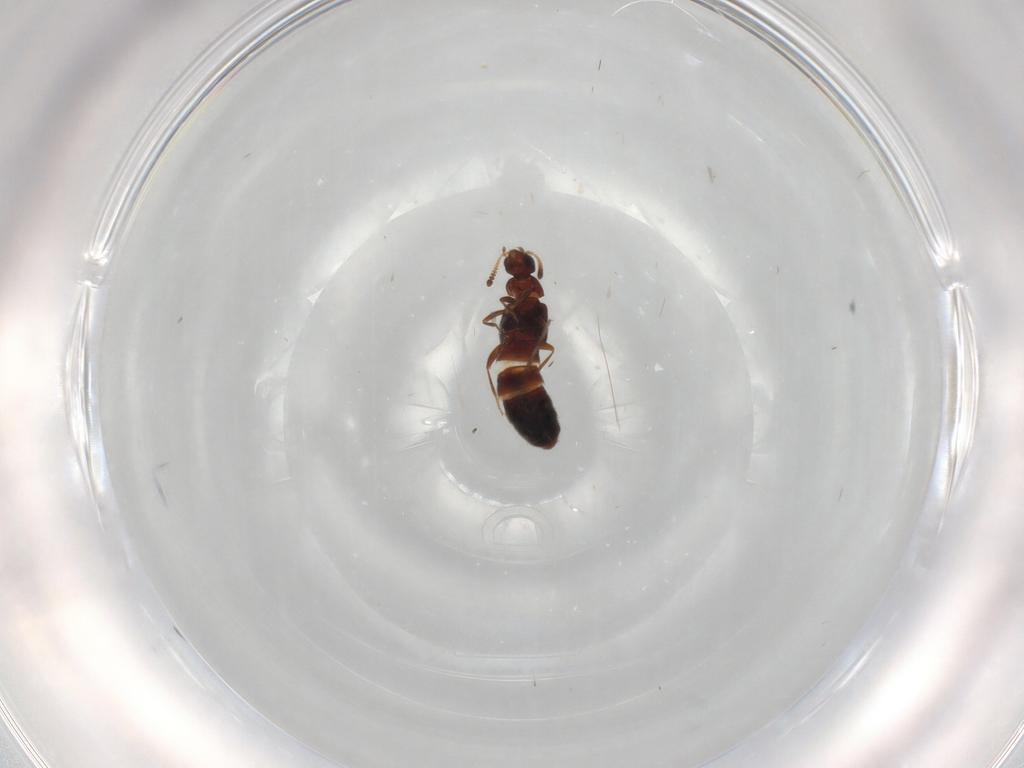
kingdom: Animalia
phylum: Arthropoda
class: Insecta
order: Coleoptera
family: Staphylinidae
